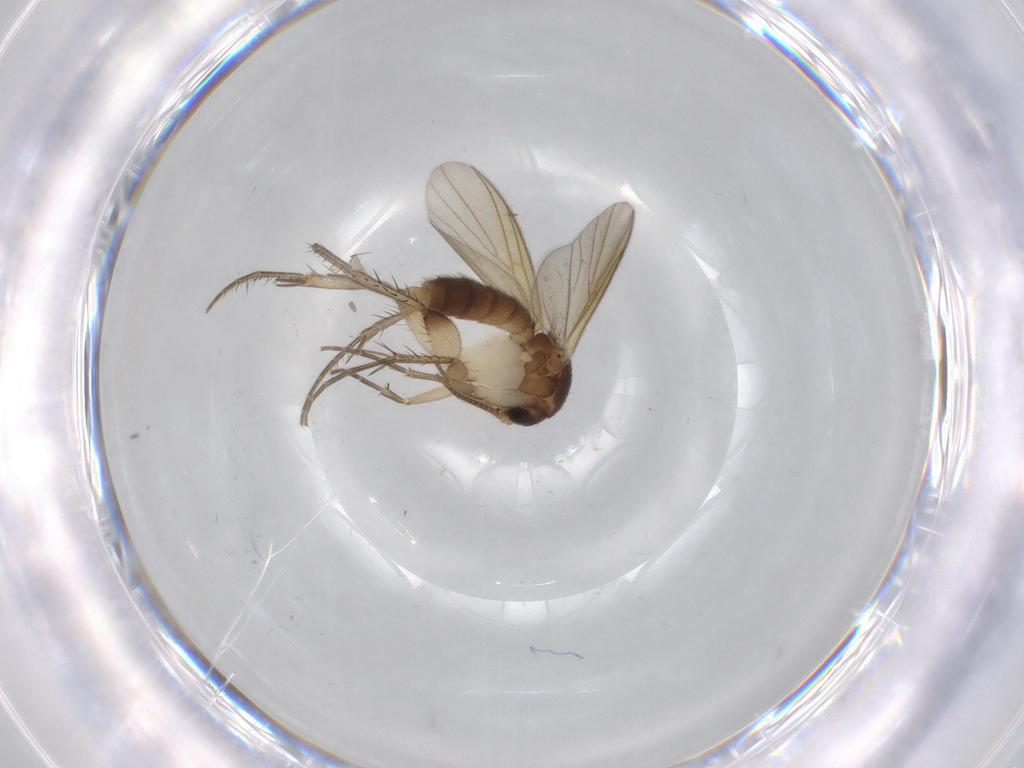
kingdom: Animalia
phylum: Arthropoda
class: Insecta
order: Diptera
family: Mycetophilidae
